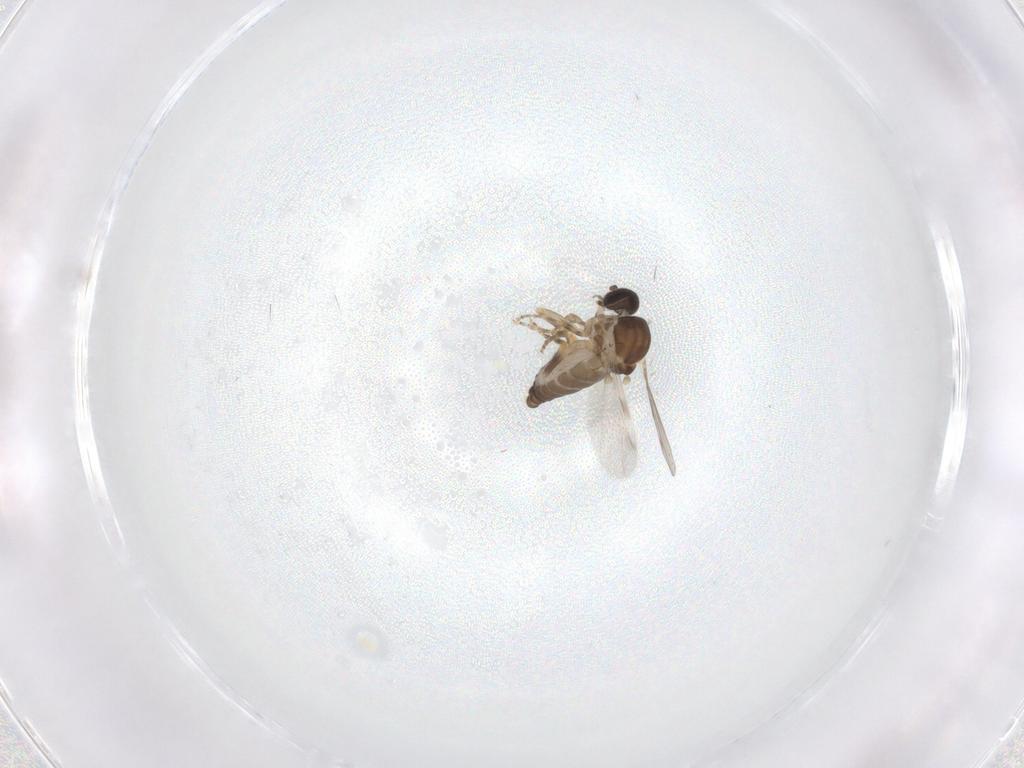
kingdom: Animalia
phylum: Arthropoda
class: Insecta
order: Diptera
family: Ceratopogonidae
